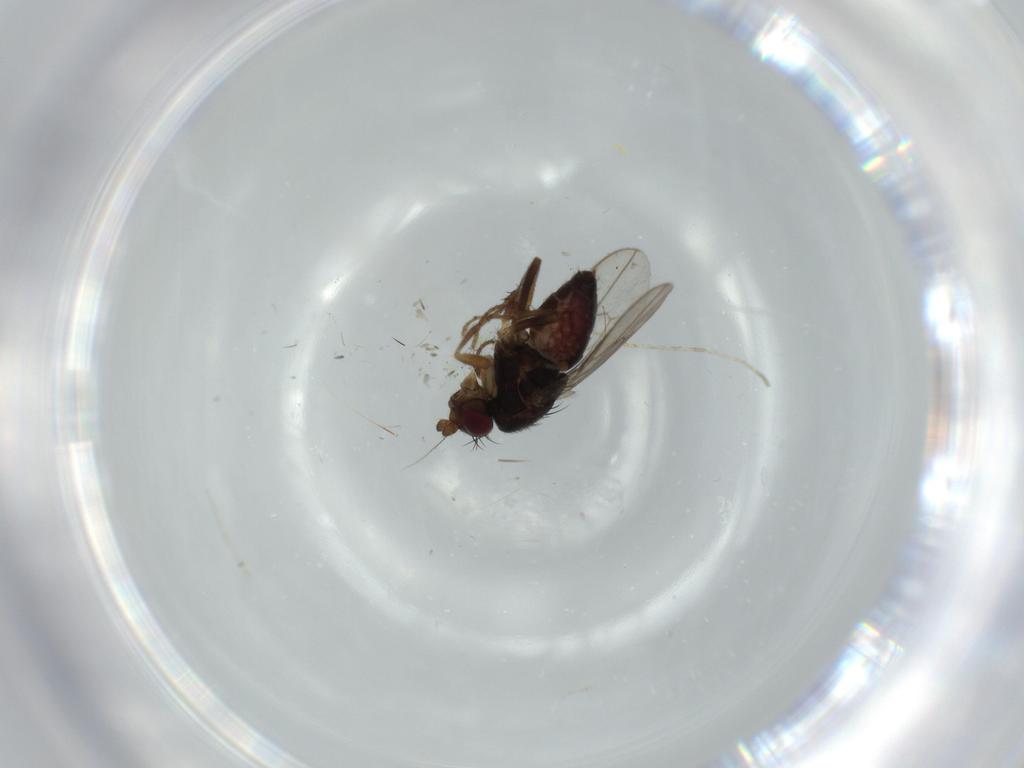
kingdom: Animalia
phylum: Arthropoda
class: Insecta
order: Diptera
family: Sphaeroceridae
